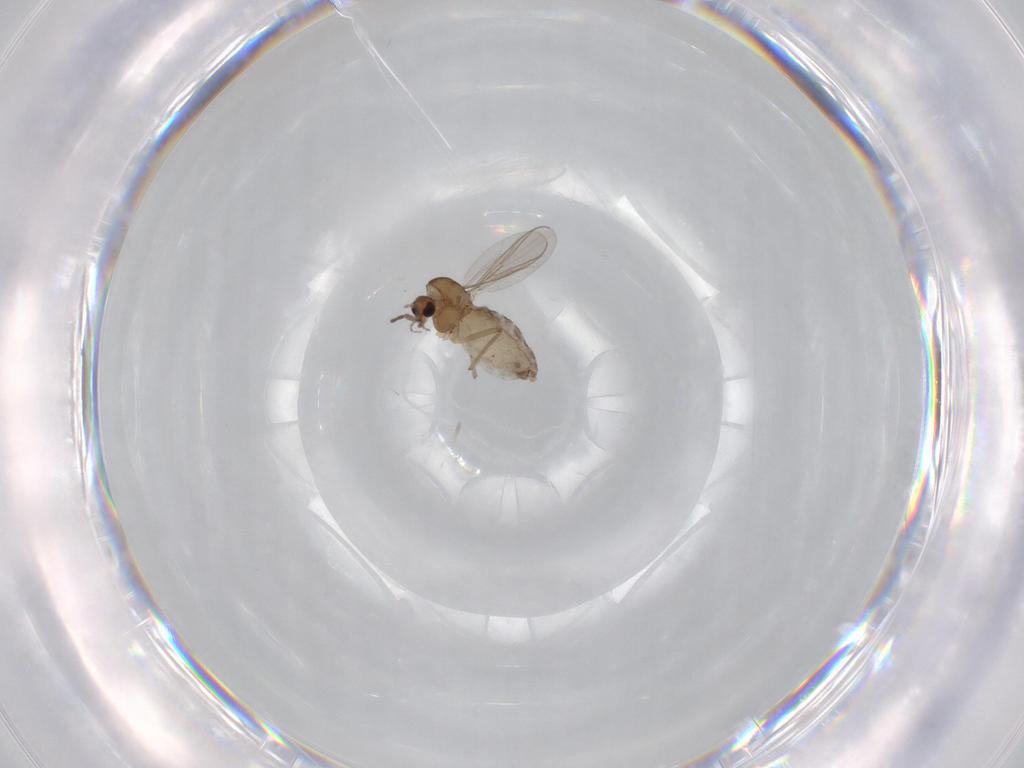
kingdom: Animalia
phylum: Arthropoda
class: Insecta
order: Diptera
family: Chironomidae
